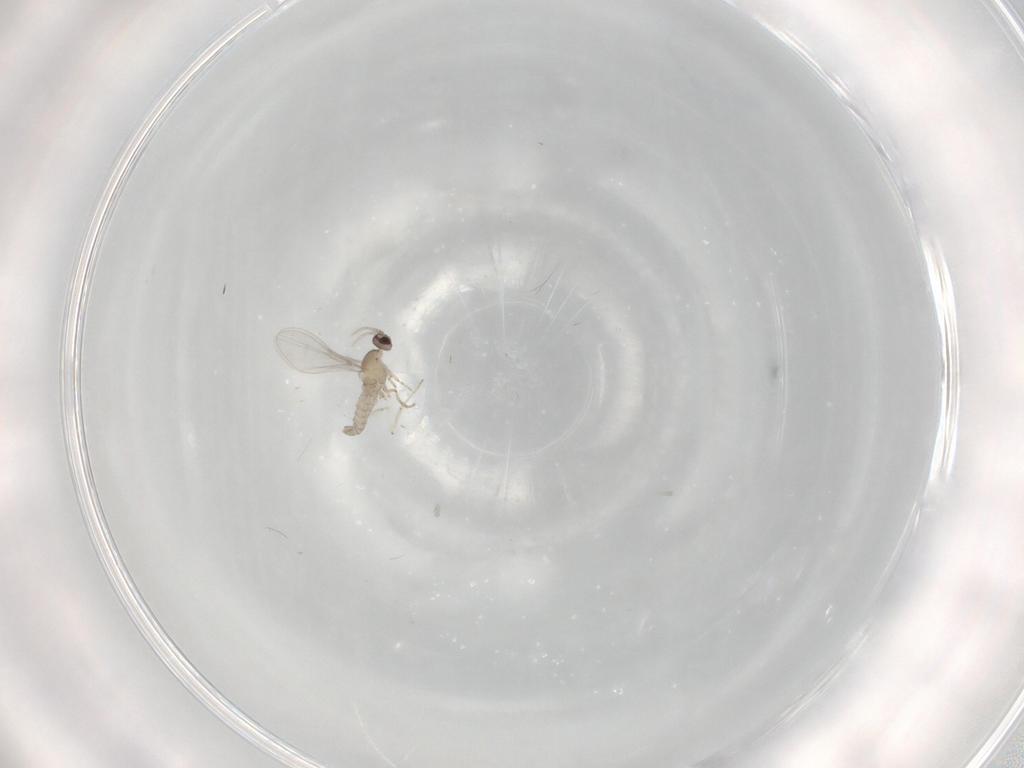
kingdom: Animalia
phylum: Arthropoda
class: Insecta
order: Diptera
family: Cecidomyiidae
